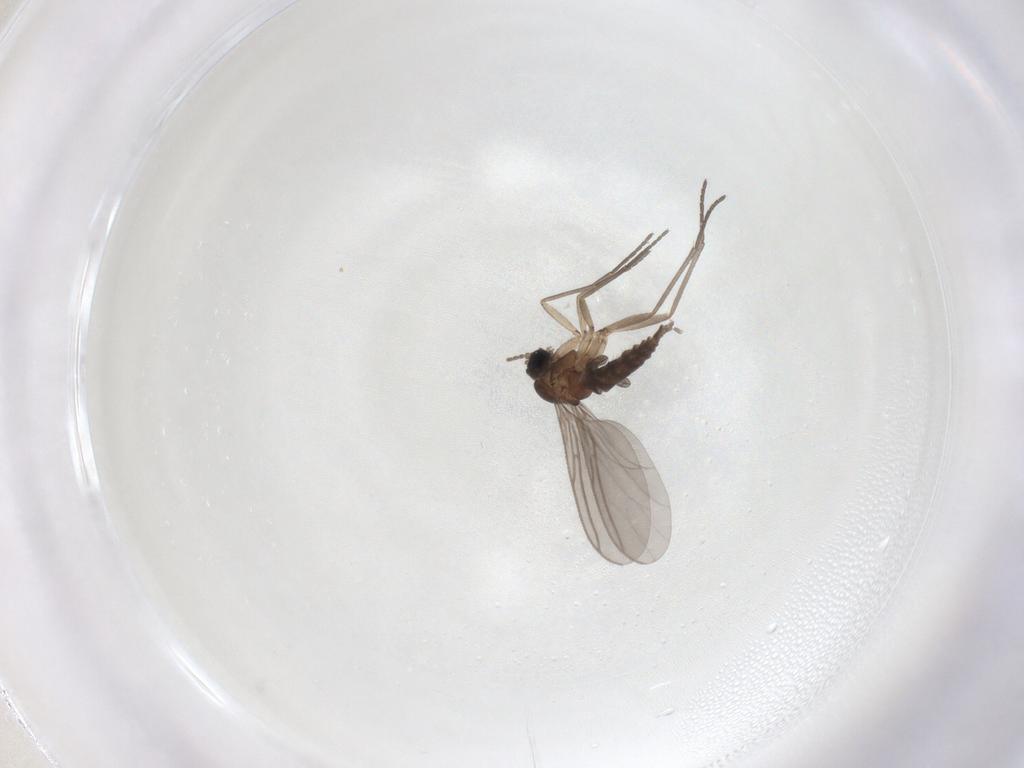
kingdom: Animalia
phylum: Arthropoda
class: Insecta
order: Diptera
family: Sciaridae
